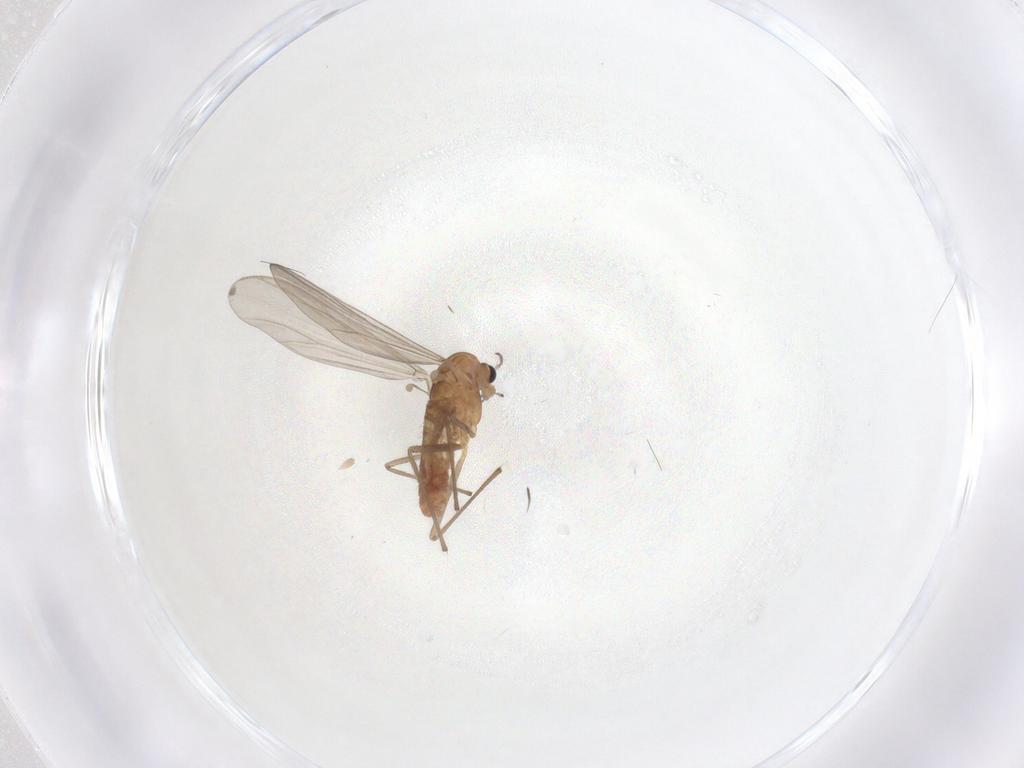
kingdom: Animalia
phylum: Arthropoda
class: Insecta
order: Diptera
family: Chironomidae
